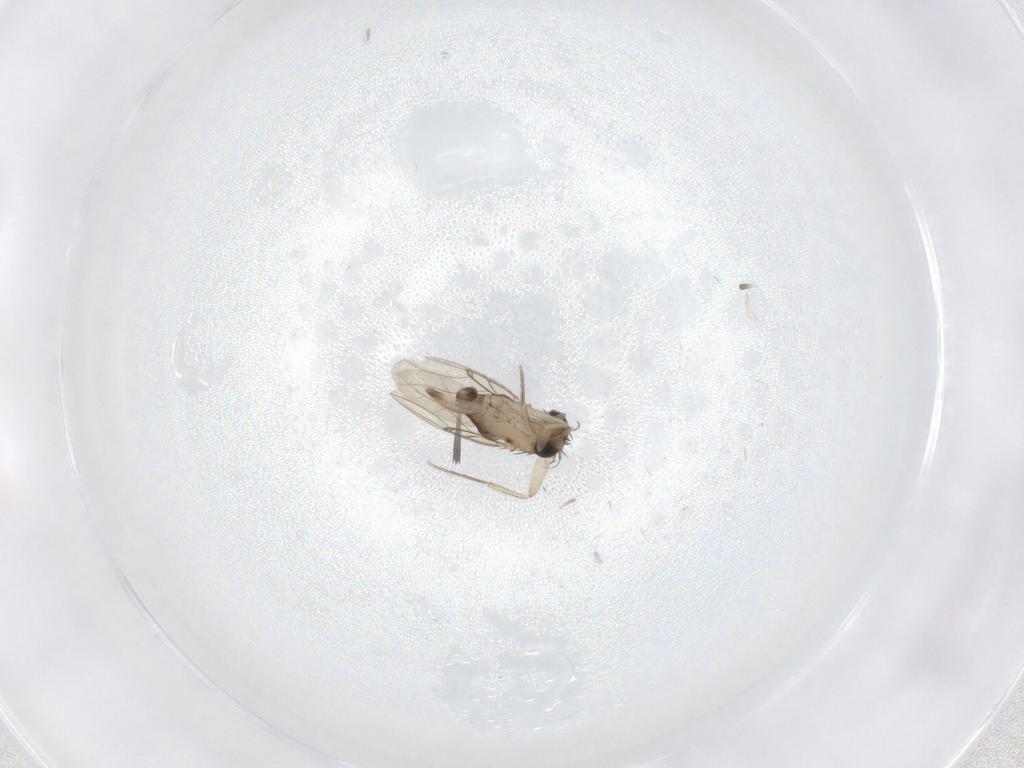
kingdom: Animalia
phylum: Arthropoda
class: Insecta
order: Diptera
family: Phoridae
